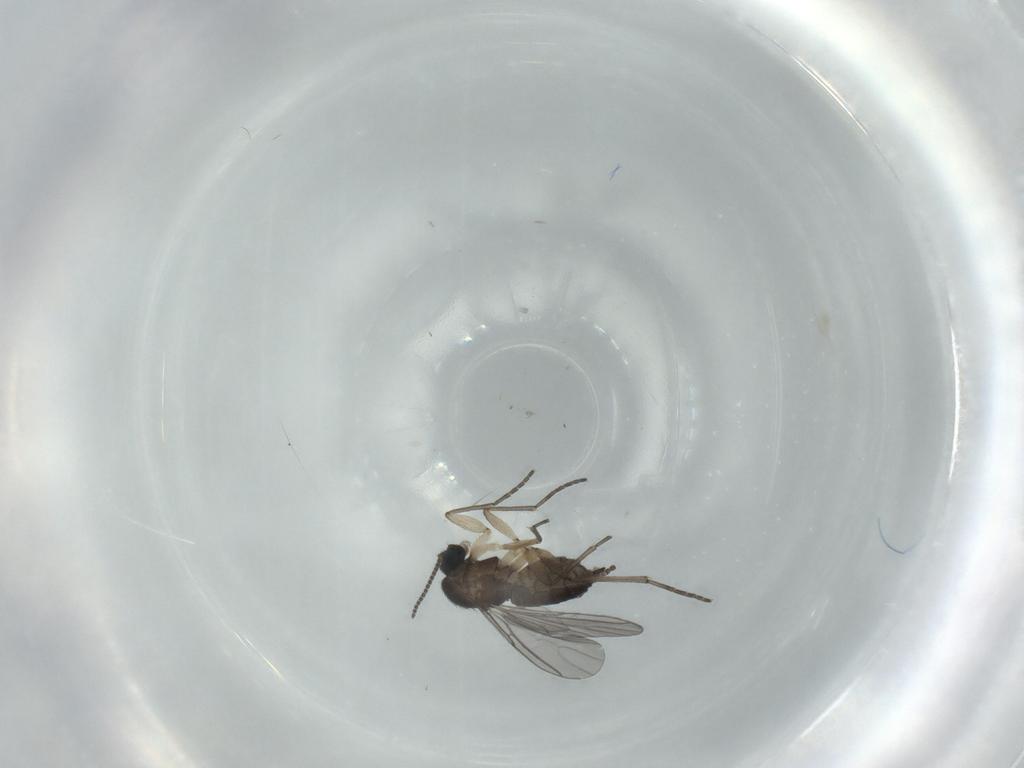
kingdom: Animalia
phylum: Arthropoda
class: Insecta
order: Diptera
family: Sciaridae
